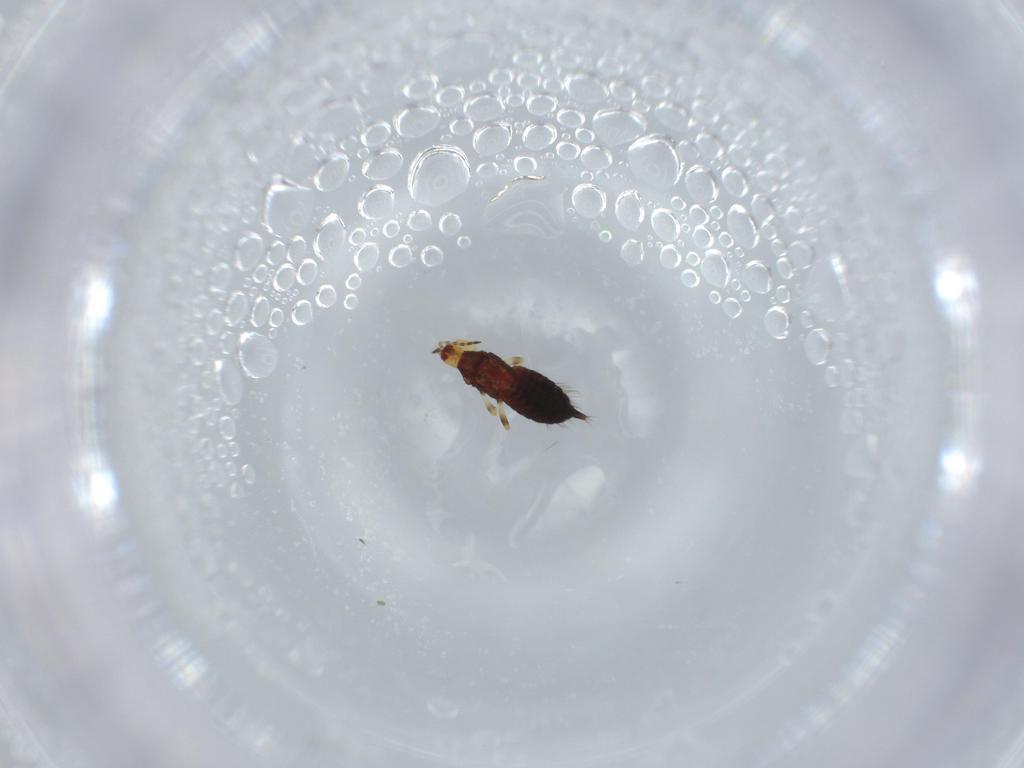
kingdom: Animalia
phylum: Arthropoda
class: Insecta
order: Thysanoptera
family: Phlaeothripidae
